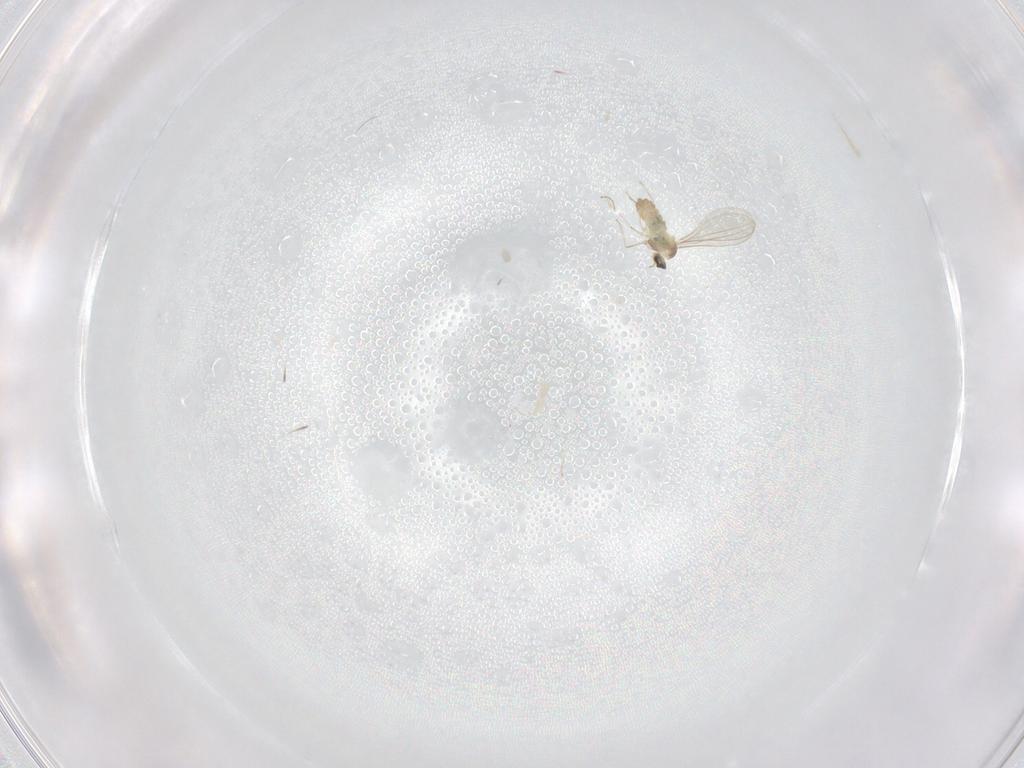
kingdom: Animalia
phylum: Arthropoda
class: Insecta
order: Diptera
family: Cecidomyiidae
